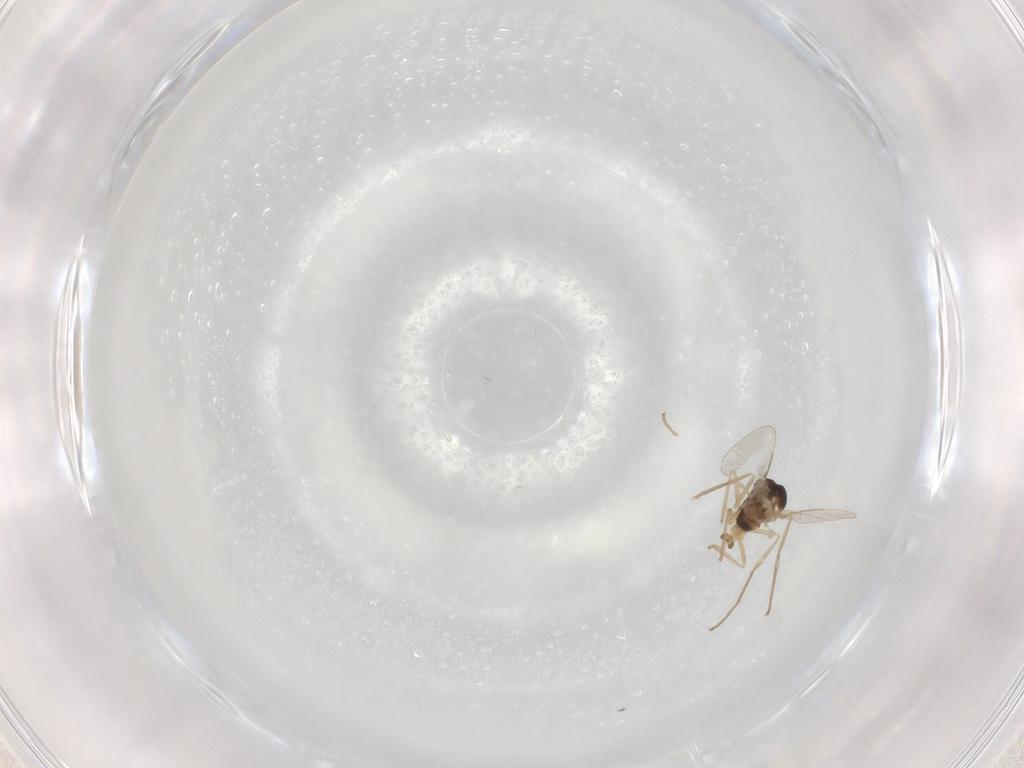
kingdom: Animalia
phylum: Arthropoda
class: Insecta
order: Diptera
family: Cecidomyiidae
